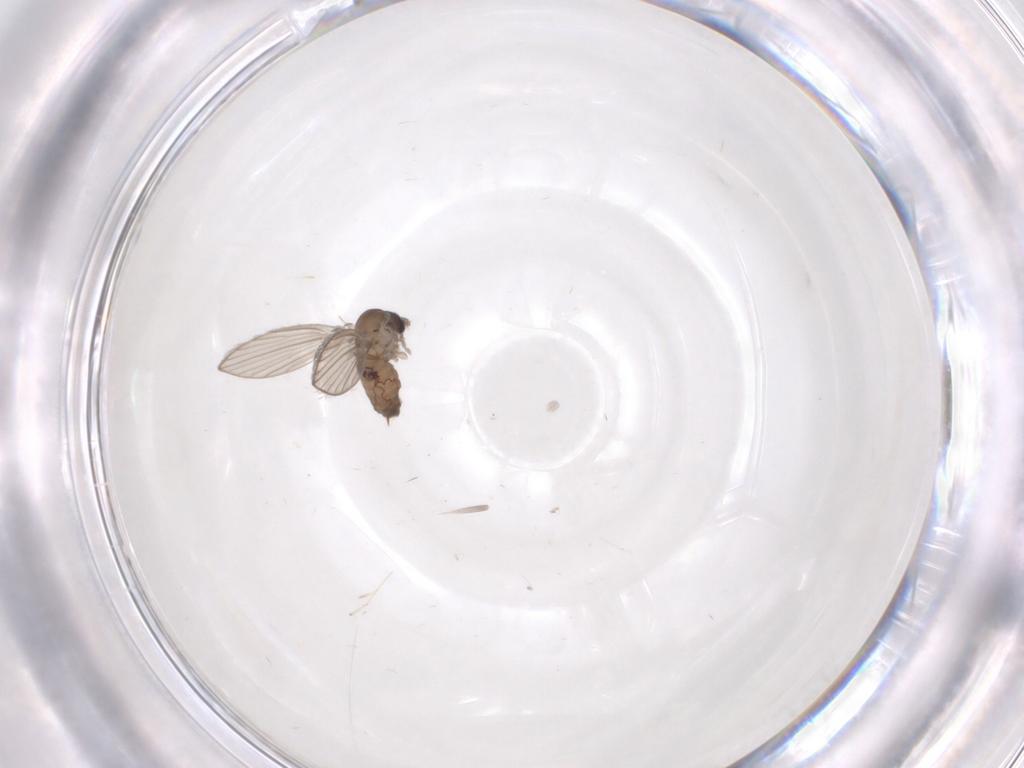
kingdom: Animalia
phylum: Arthropoda
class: Insecta
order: Diptera
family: Psychodidae
